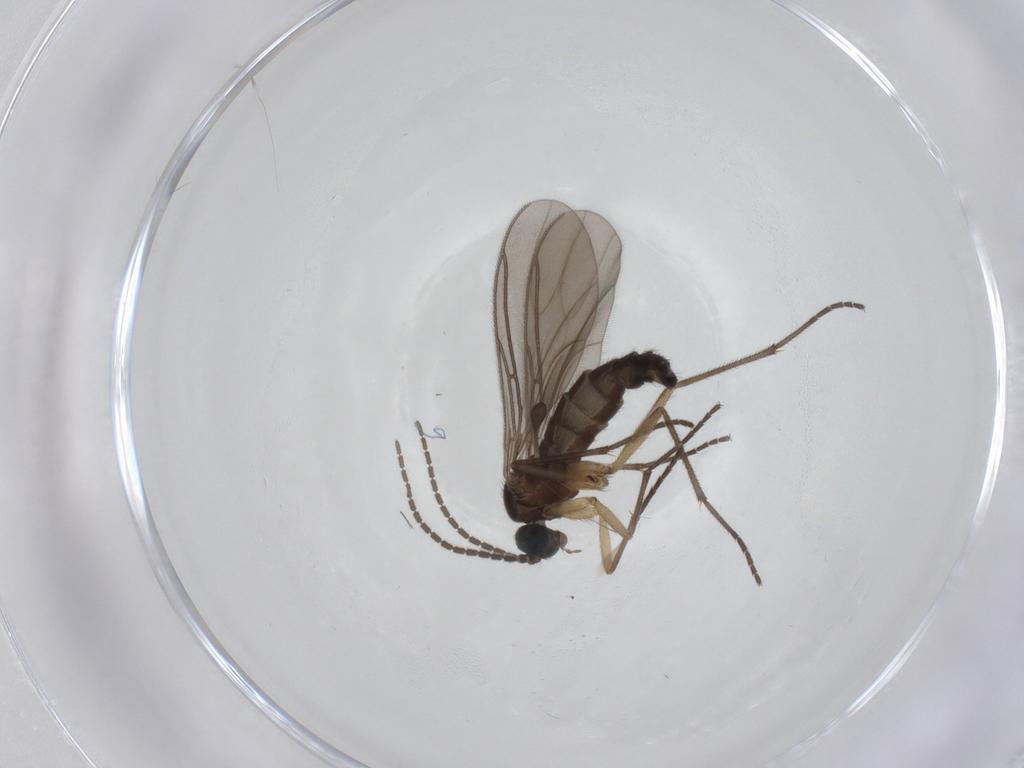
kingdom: Animalia
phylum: Arthropoda
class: Insecta
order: Diptera
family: Cecidomyiidae
